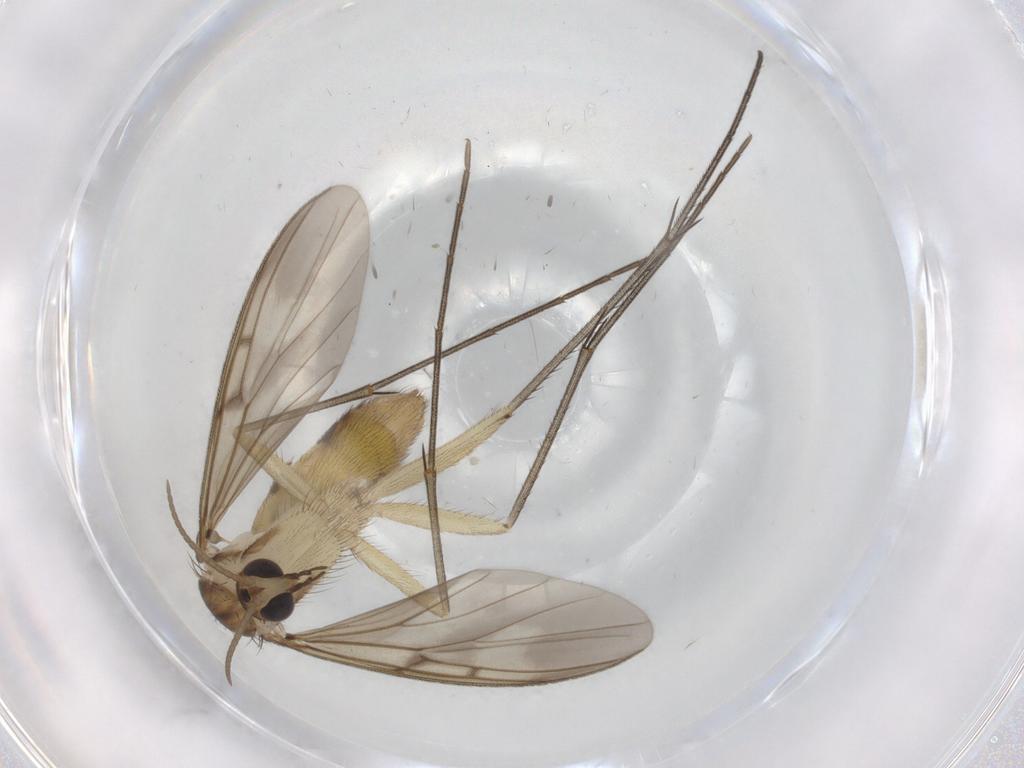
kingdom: Animalia
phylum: Arthropoda
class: Insecta
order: Diptera
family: Mycetophilidae
